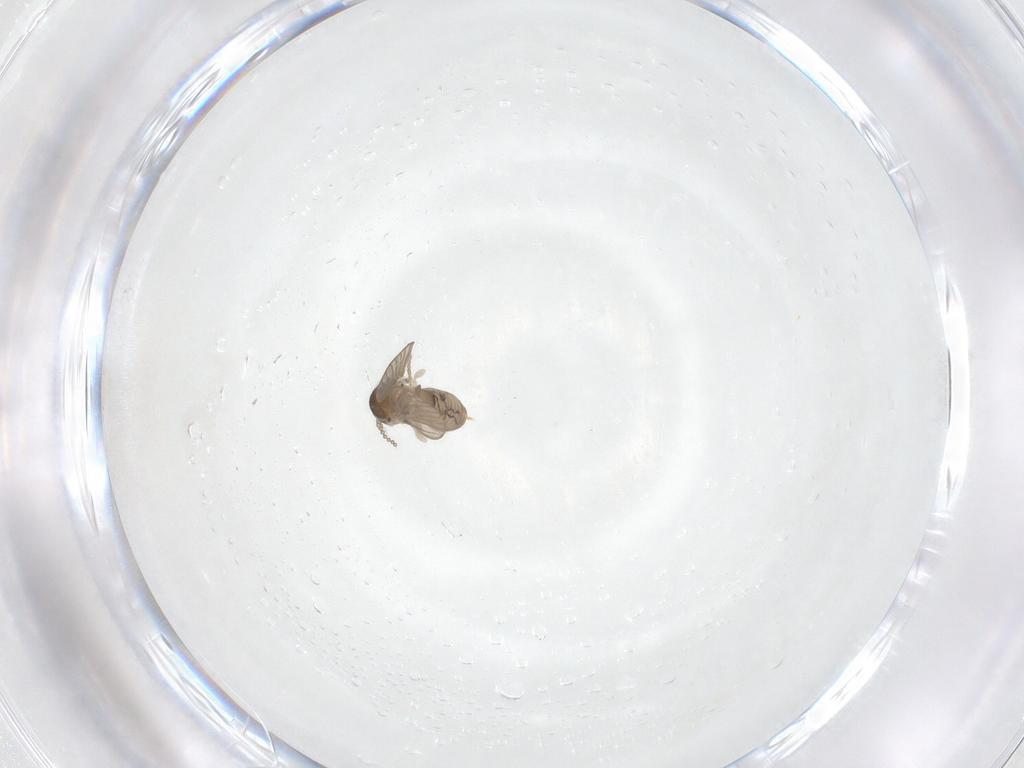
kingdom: Animalia
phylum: Arthropoda
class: Insecta
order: Diptera
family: Psychodidae
